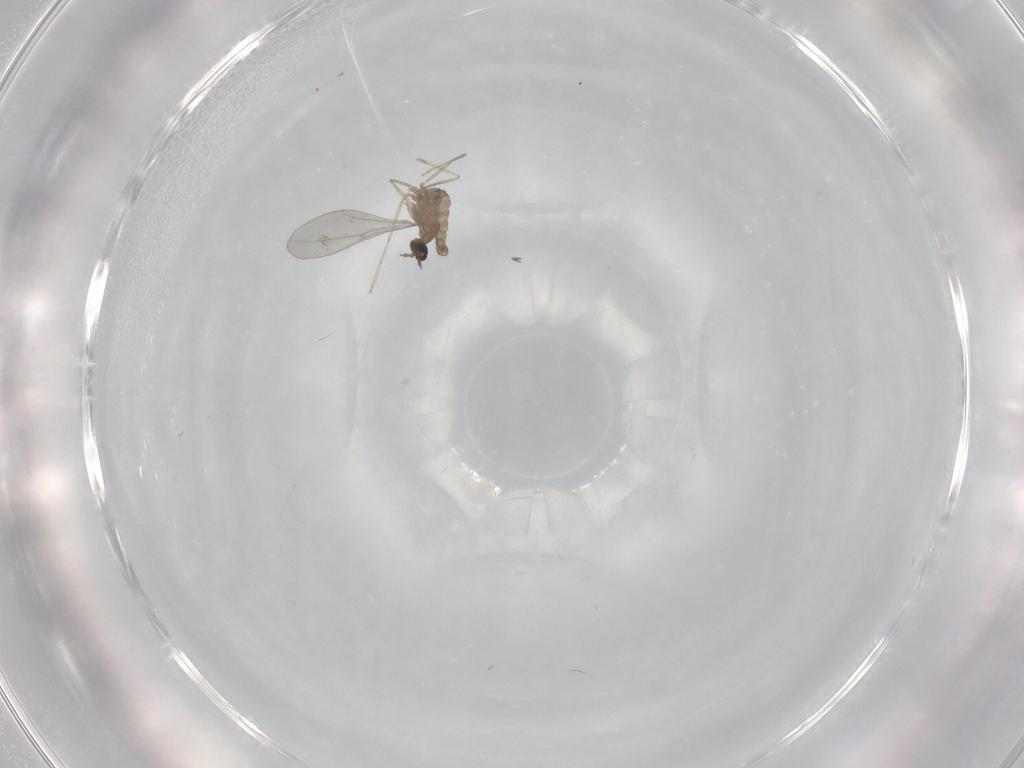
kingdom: Animalia
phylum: Arthropoda
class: Insecta
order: Diptera
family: Cecidomyiidae
